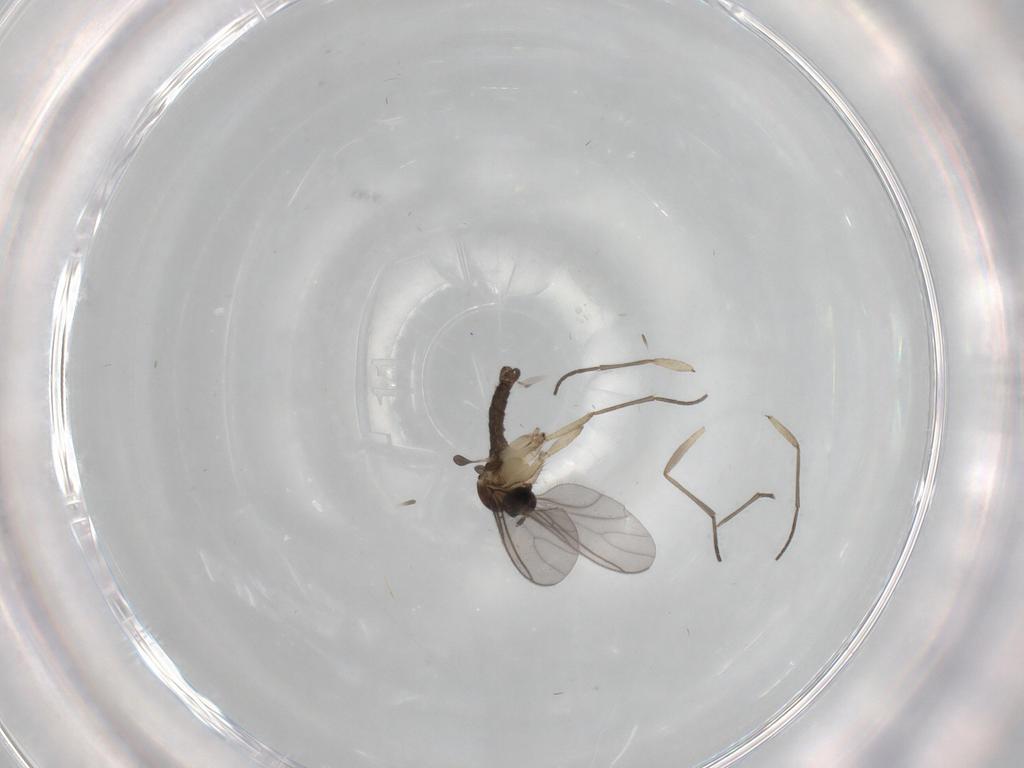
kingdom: Animalia
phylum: Arthropoda
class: Insecta
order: Diptera
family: Sciaridae
